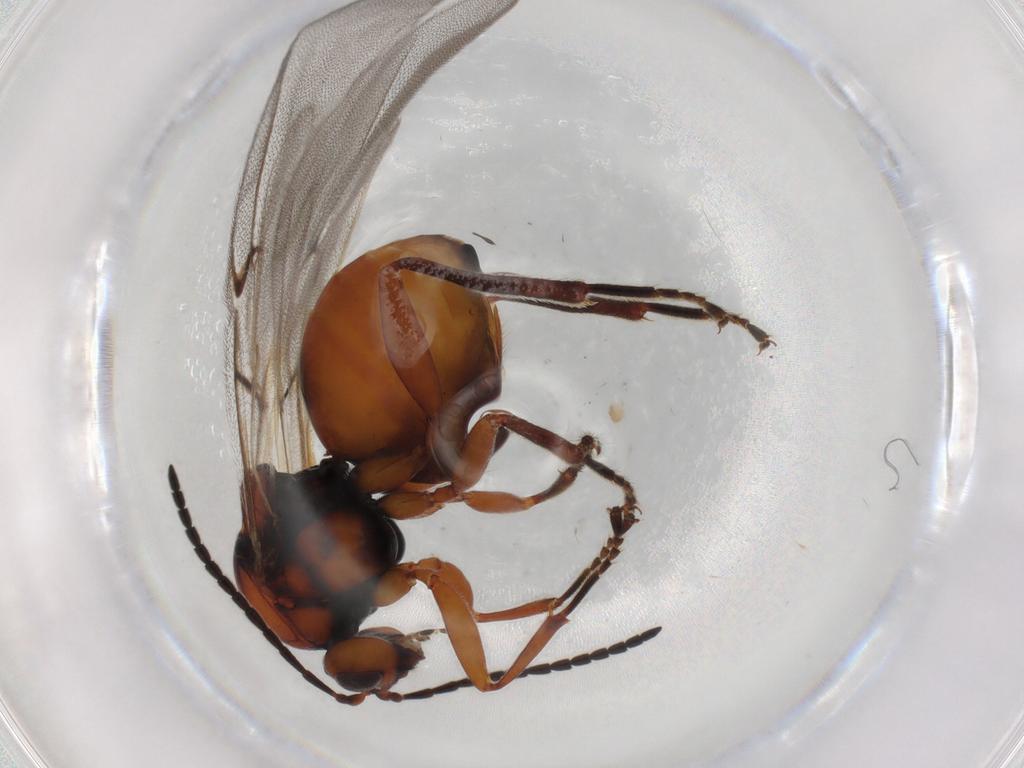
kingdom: Animalia
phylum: Arthropoda
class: Insecta
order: Hymenoptera
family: Cynipidae
